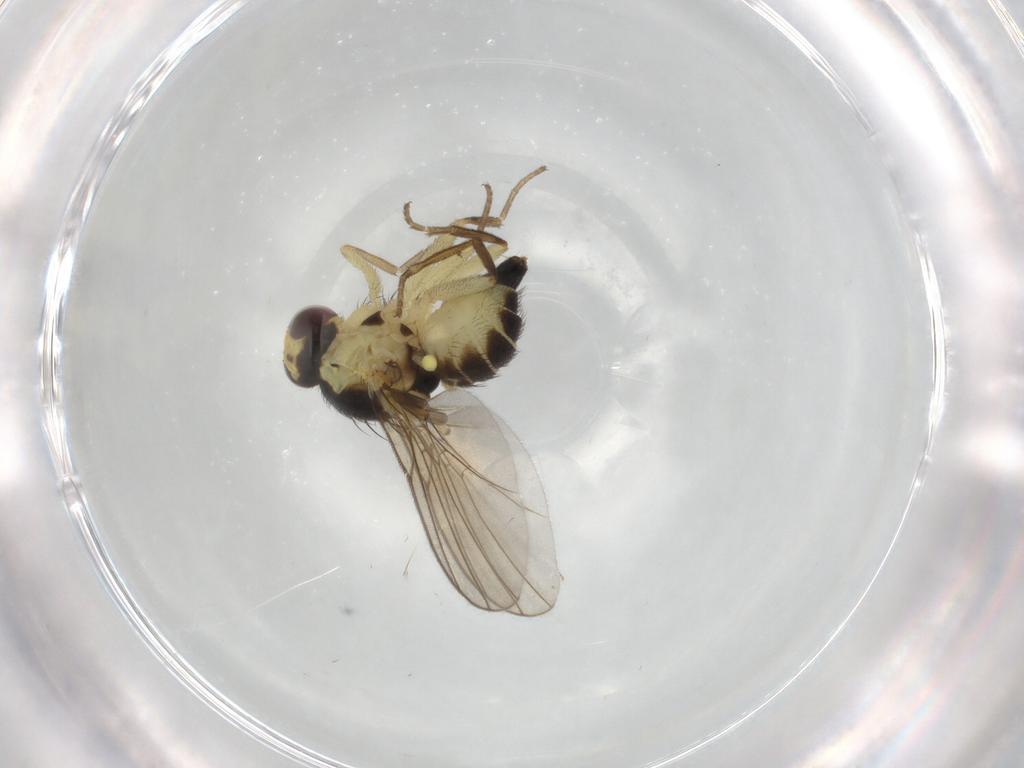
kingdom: Animalia
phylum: Arthropoda
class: Insecta
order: Diptera
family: Agromyzidae
